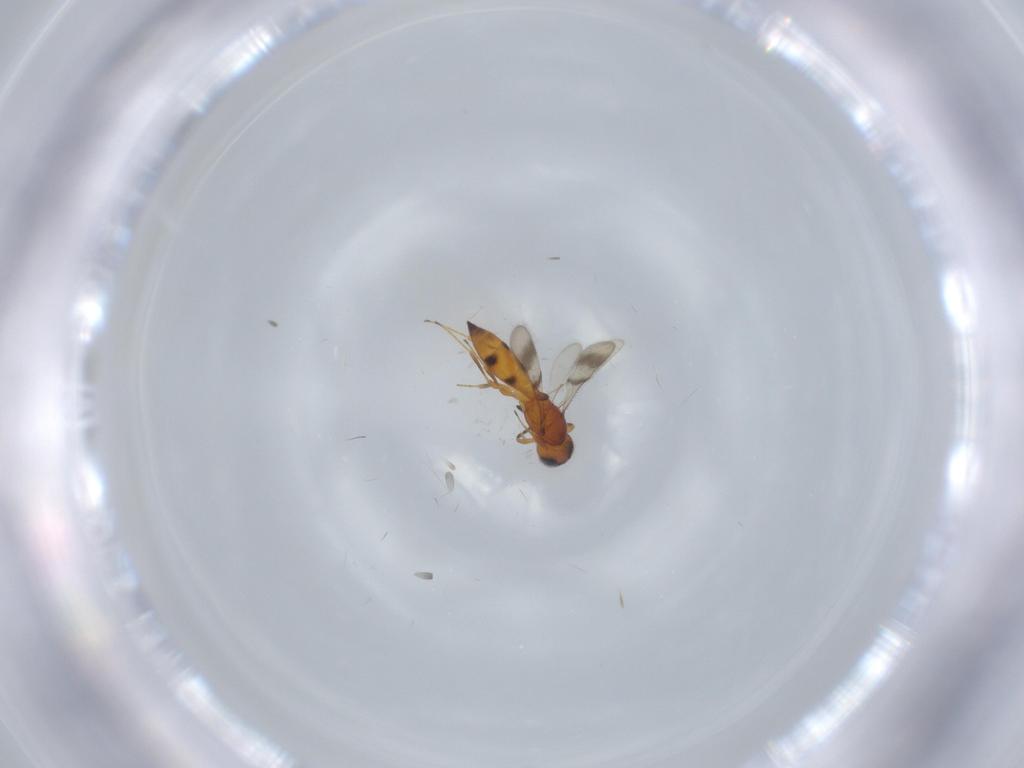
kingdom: Animalia
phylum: Arthropoda
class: Insecta
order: Hymenoptera
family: Scelionidae
